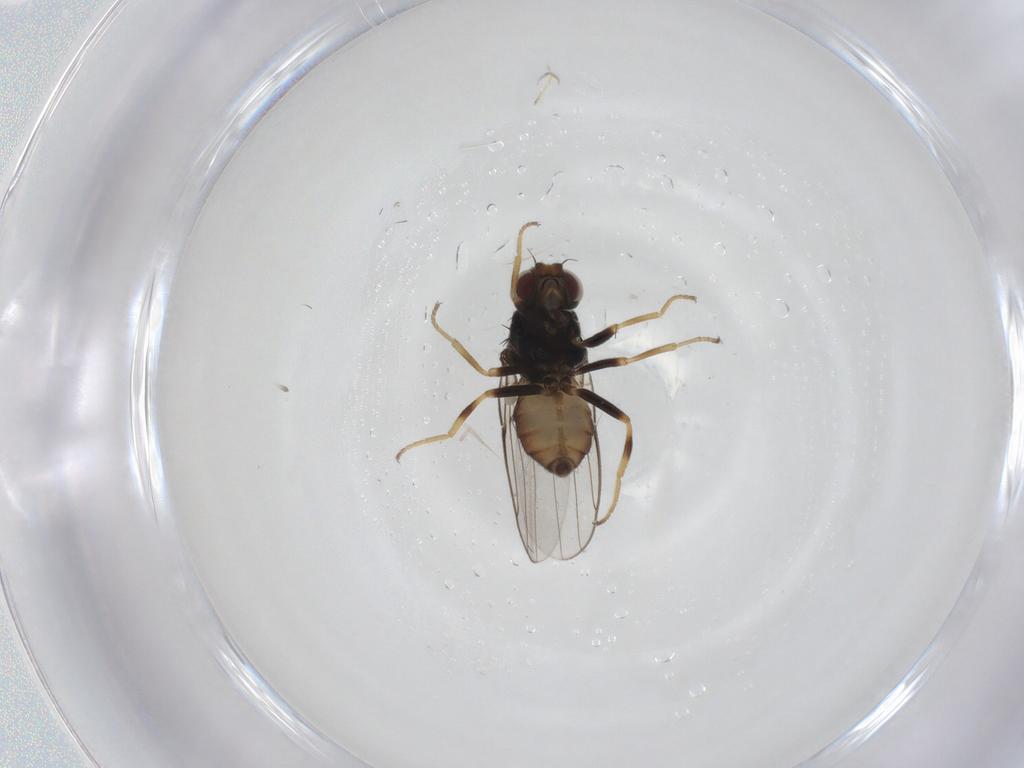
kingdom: Animalia
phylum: Arthropoda
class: Insecta
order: Diptera
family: Chloropidae
